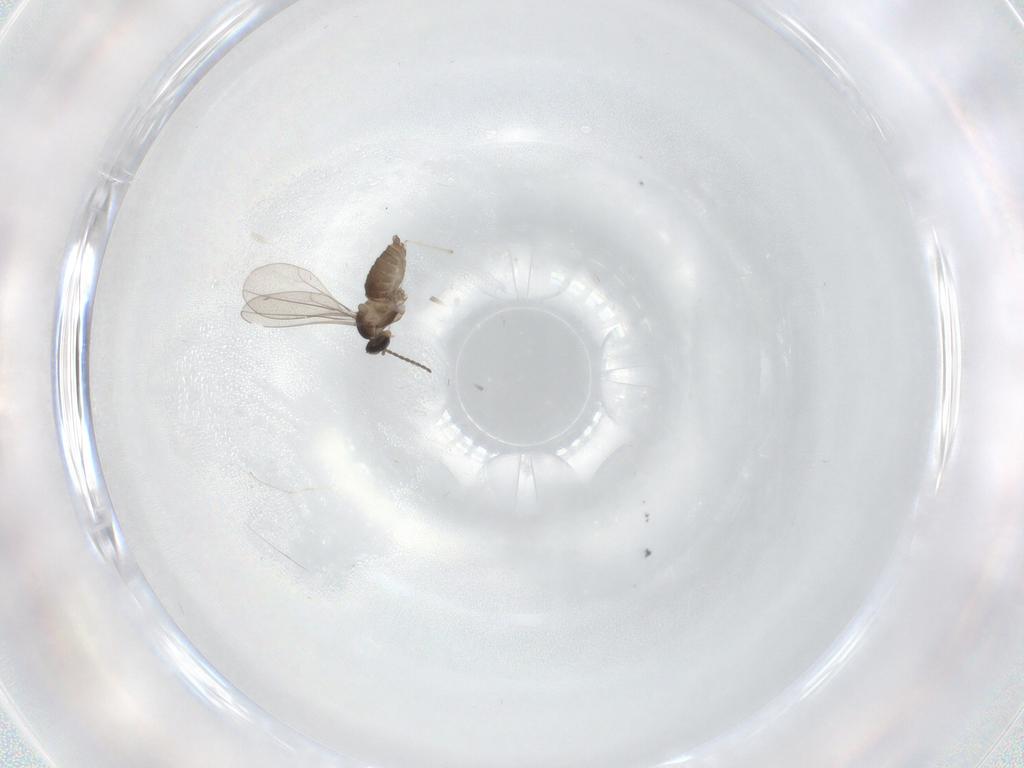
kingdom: Animalia
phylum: Arthropoda
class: Insecta
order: Diptera
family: Cecidomyiidae
